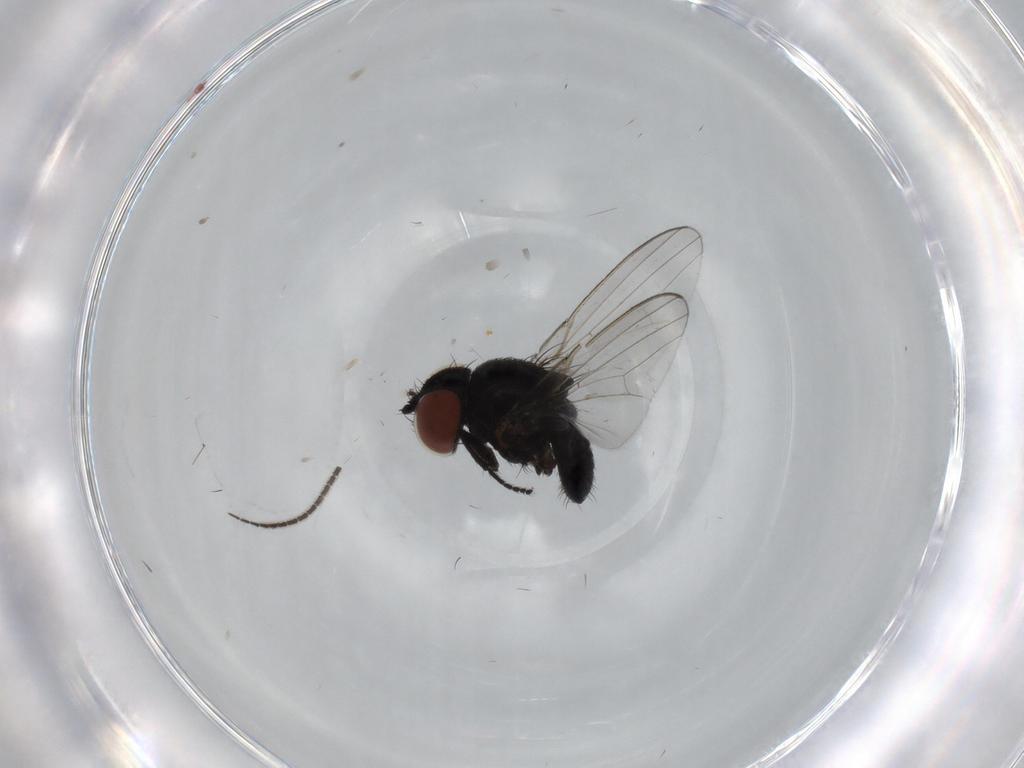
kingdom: Animalia
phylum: Arthropoda
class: Insecta
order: Diptera
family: Sciaridae
